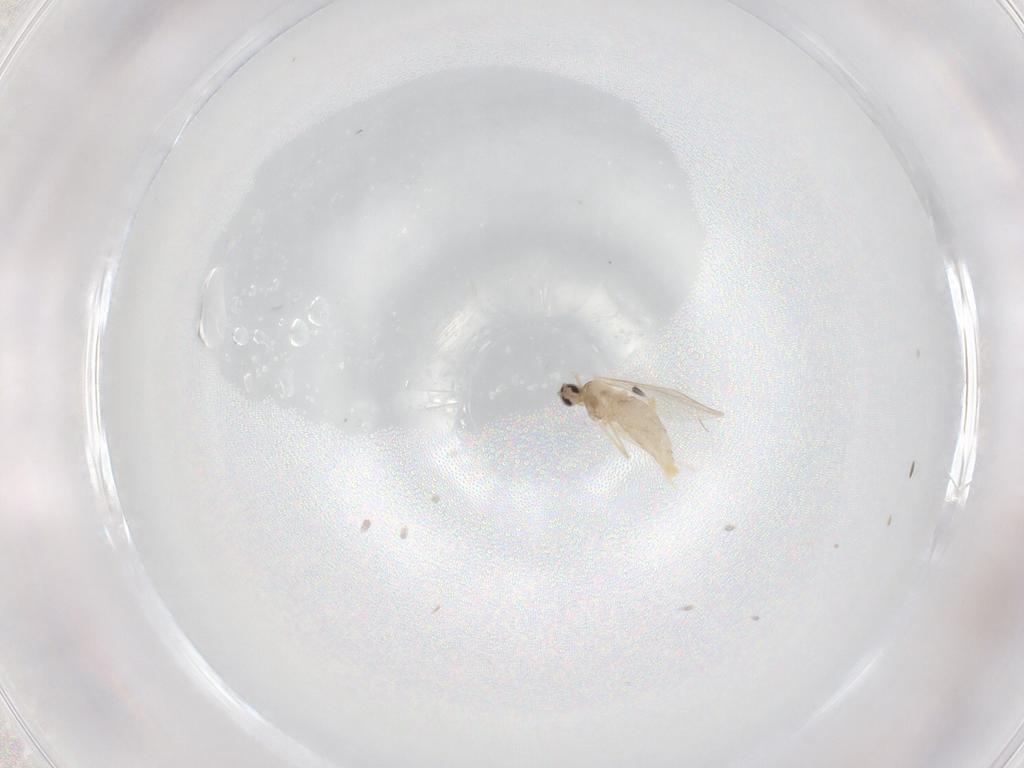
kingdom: Animalia
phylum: Arthropoda
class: Insecta
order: Diptera
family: Cecidomyiidae
